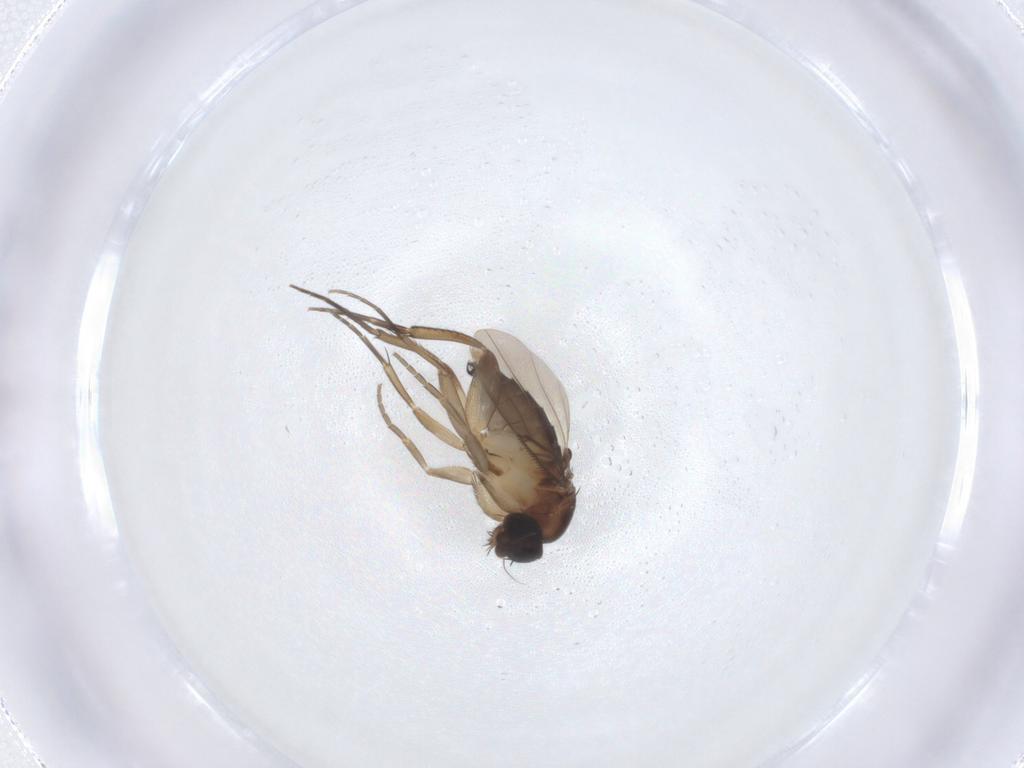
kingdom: Animalia
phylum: Arthropoda
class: Insecta
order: Diptera
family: Phoridae
